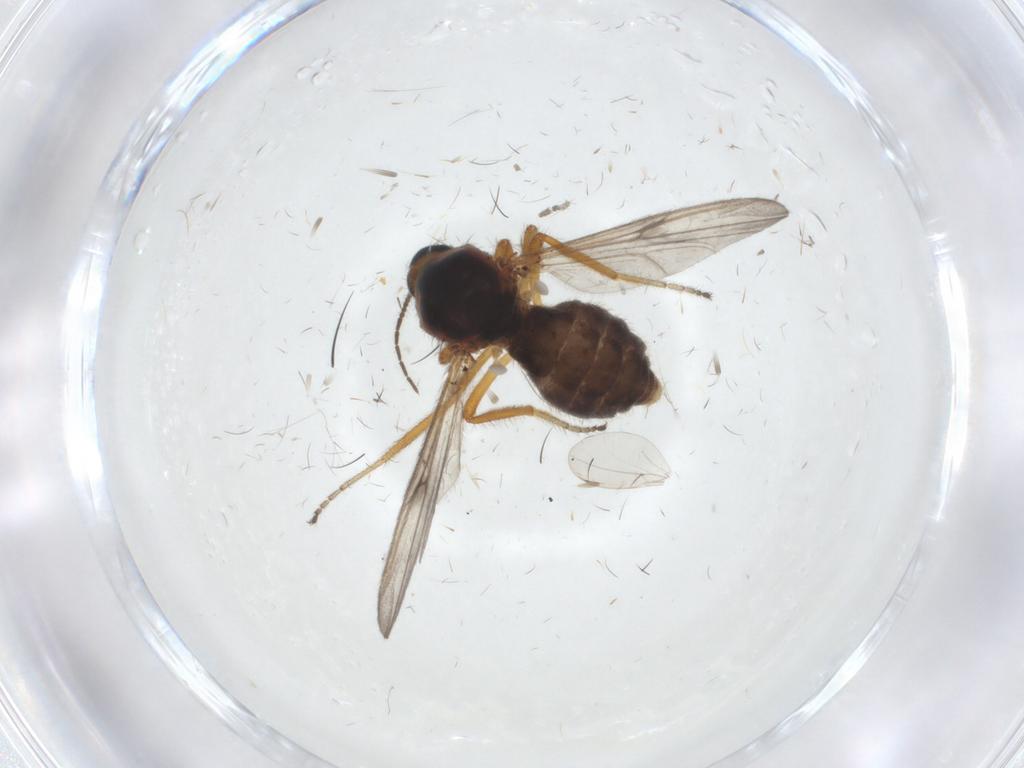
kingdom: Animalia
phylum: Arthropoda
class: Insecta
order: Diptera
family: Ceratopogonidae
